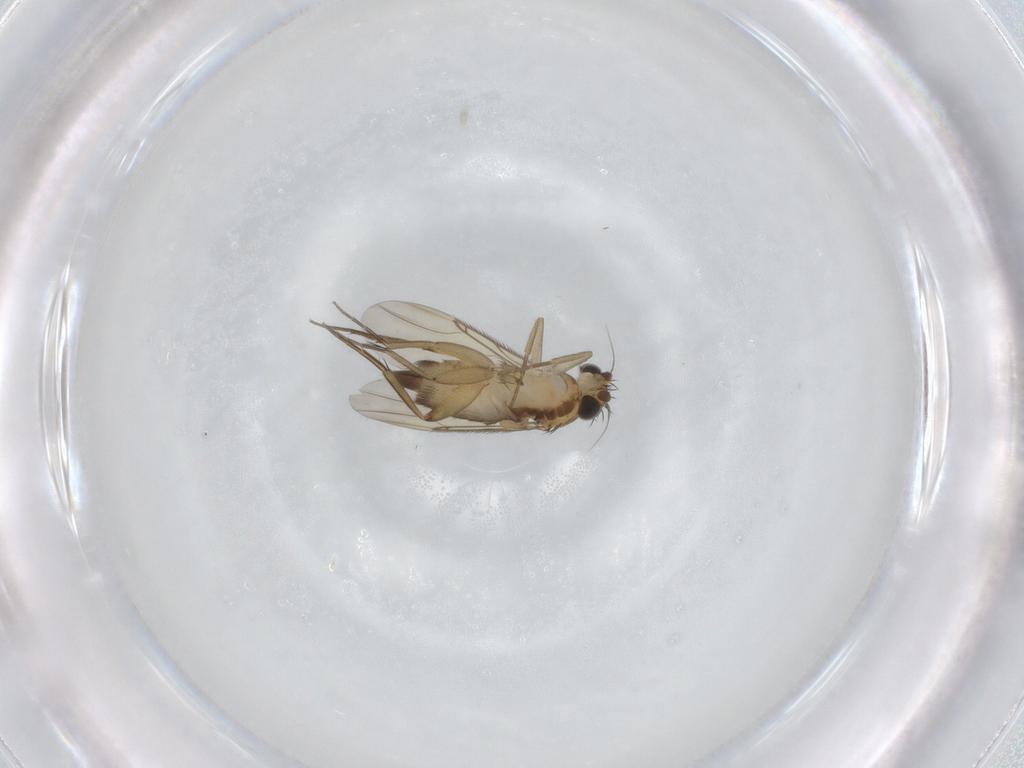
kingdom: Animalia
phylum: Arthropoda
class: Insecta
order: Diptera
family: Phoridae
